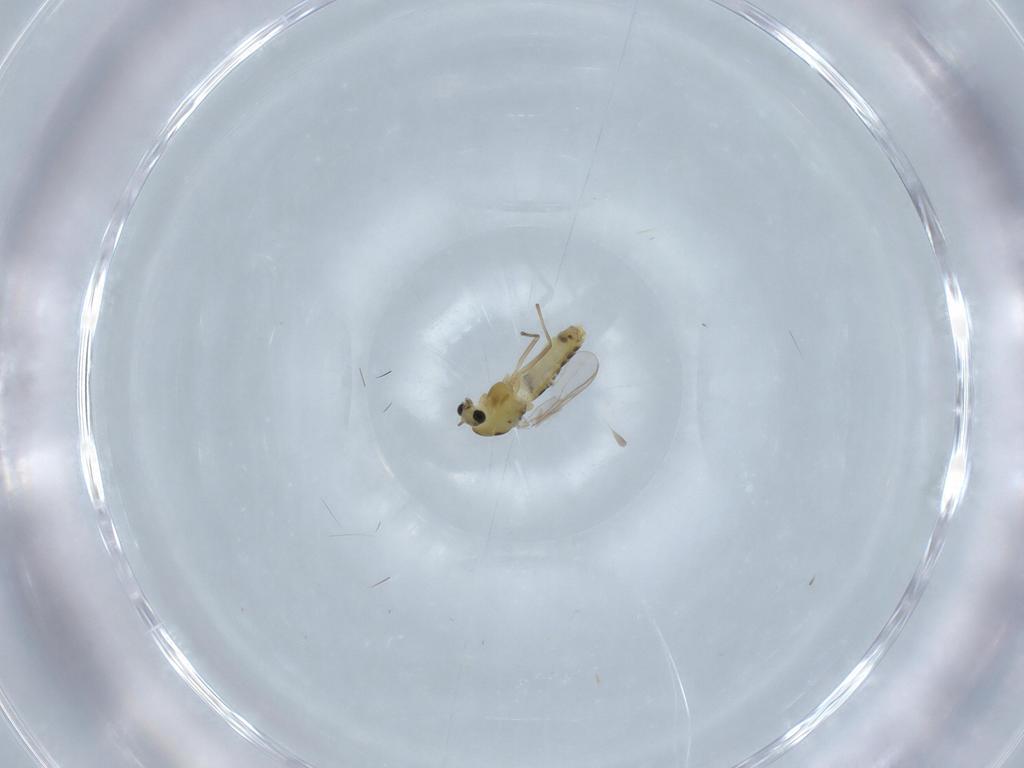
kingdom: Animalia
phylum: Arthropoda
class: Insecta
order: Diptera
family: Chironomidae
